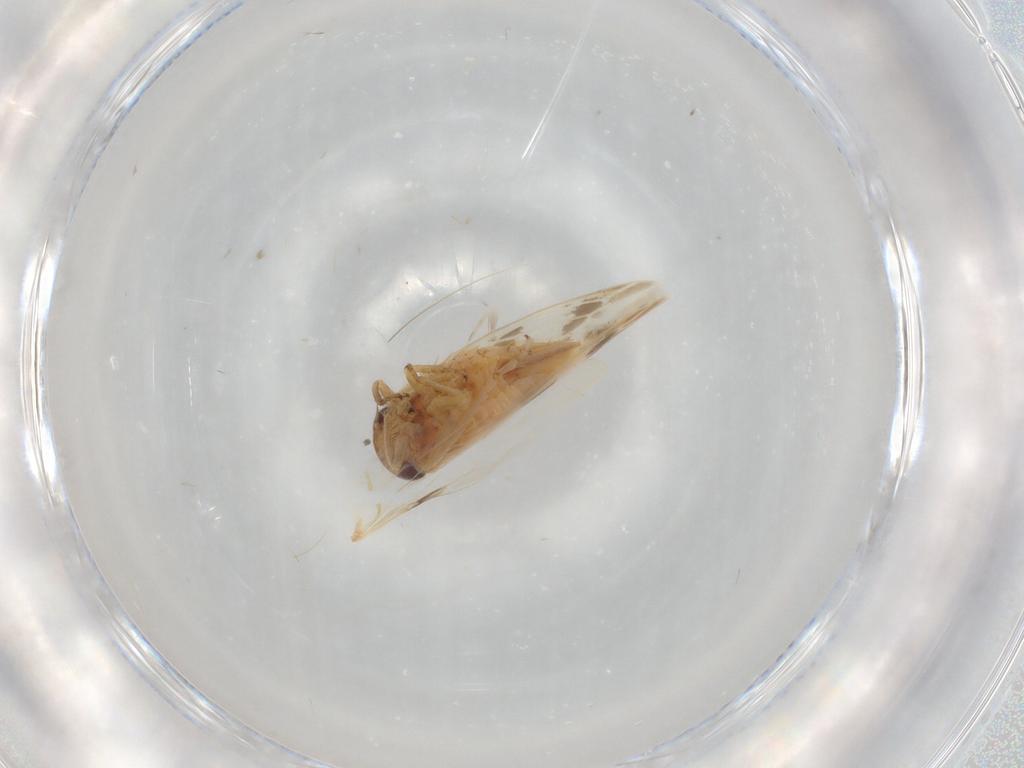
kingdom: Animalia
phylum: Arthropoda
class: Insecta
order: Hemiptera
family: Cicadellidae
